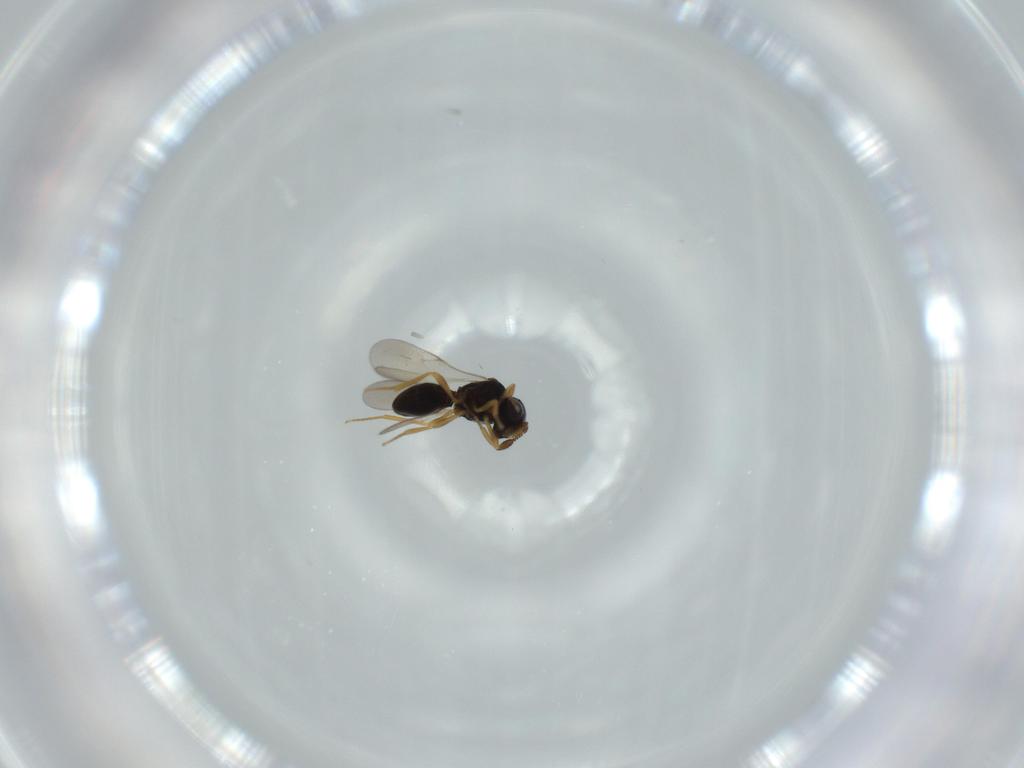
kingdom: Animalia
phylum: Arthropoda
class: Insecta
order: Hymenoptera
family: Scelionidae
